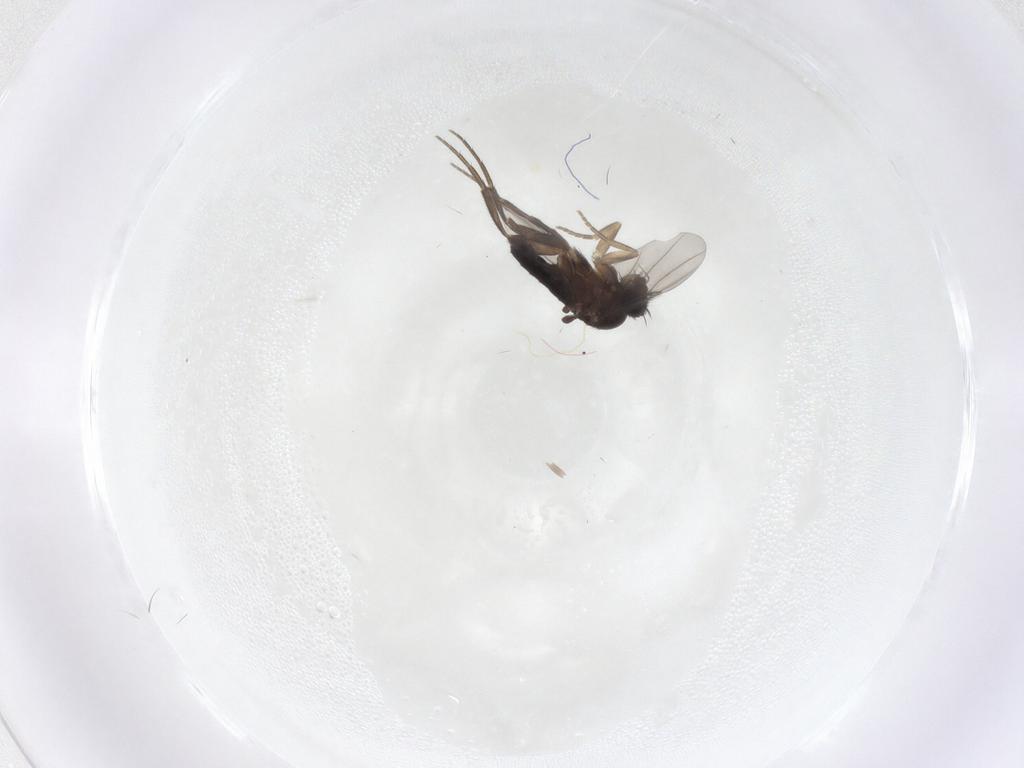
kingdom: Animalia
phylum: Arthropoda
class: Insecta
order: Diptera
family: Phoridae
